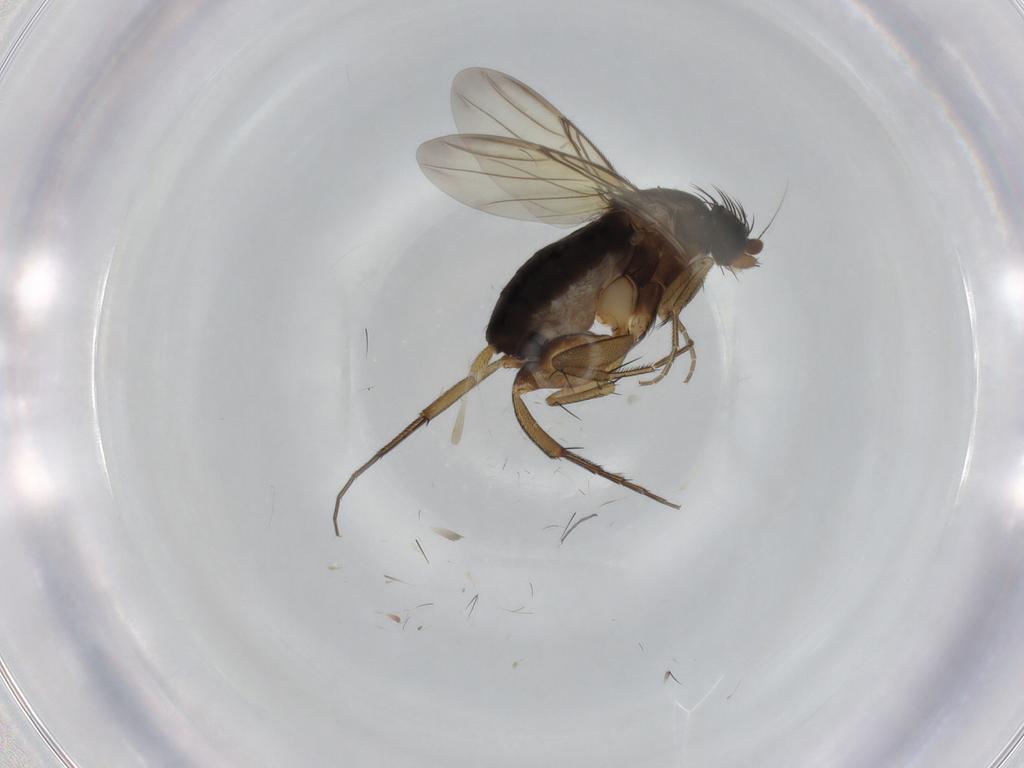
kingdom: Animalia
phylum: Arthropoda
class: Insecta
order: Diptera
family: Phoridae
